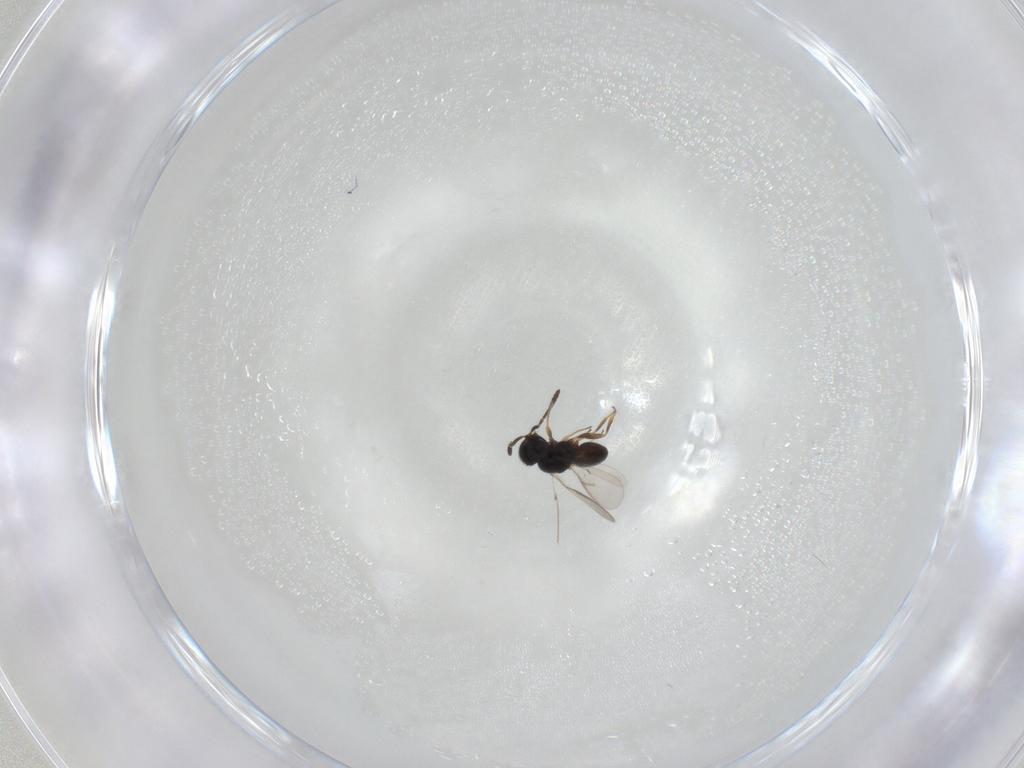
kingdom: Animalia
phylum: Arthropoda
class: Insecta
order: Hymenoptera
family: Scelionidae
